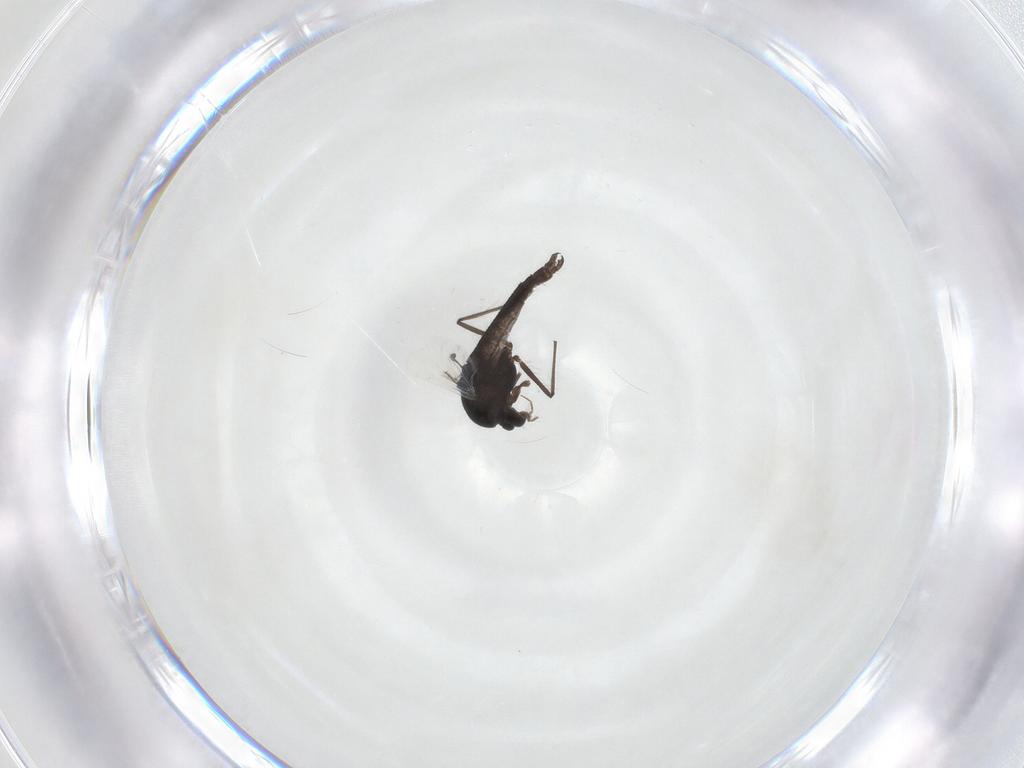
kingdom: Animalia
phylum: Arthropoda
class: Insecta
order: Diptera
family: Chironomidae
